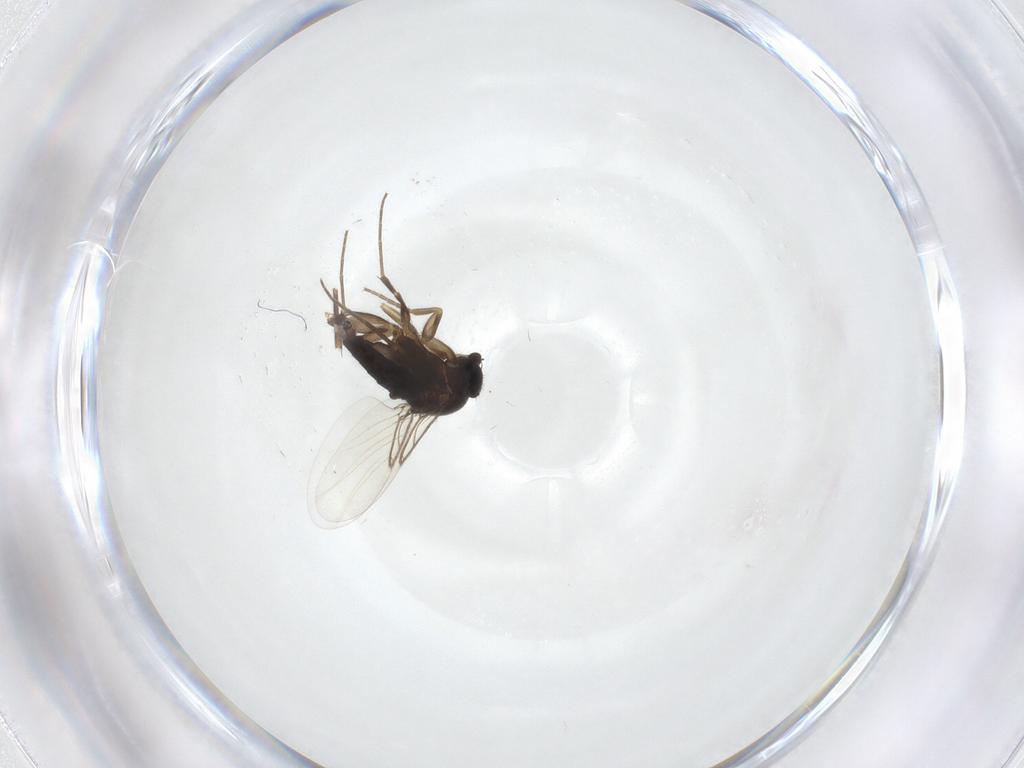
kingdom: Animalia
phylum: Arthropoda
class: Insecta
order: Diptera
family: Phoridae
